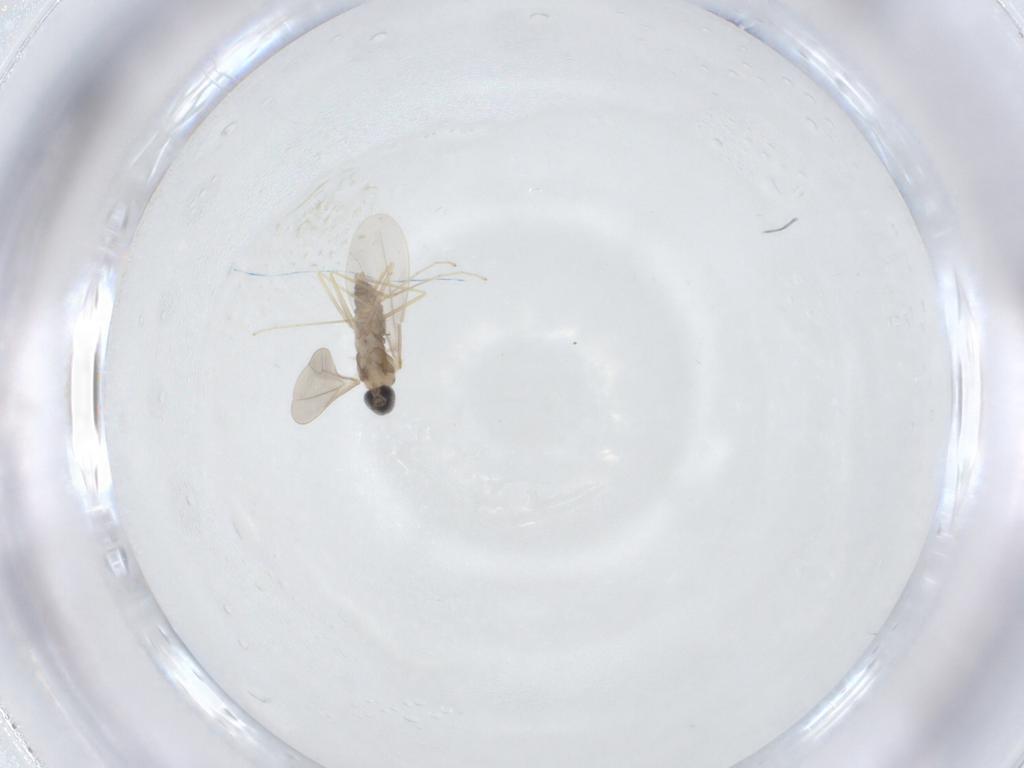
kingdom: Animalia
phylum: Arthropoda
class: Insecta
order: Diptera
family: Limoniidae
